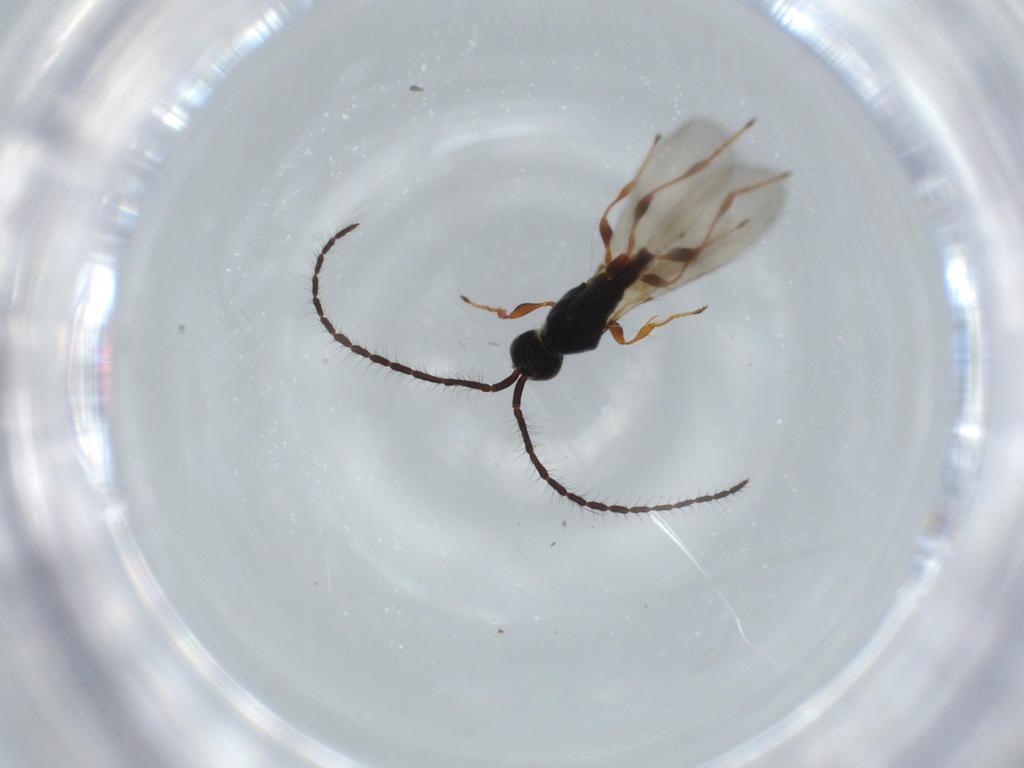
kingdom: Animalia
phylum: Arthropoda
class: Insecta
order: Hymenoptera
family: Diapriidae
